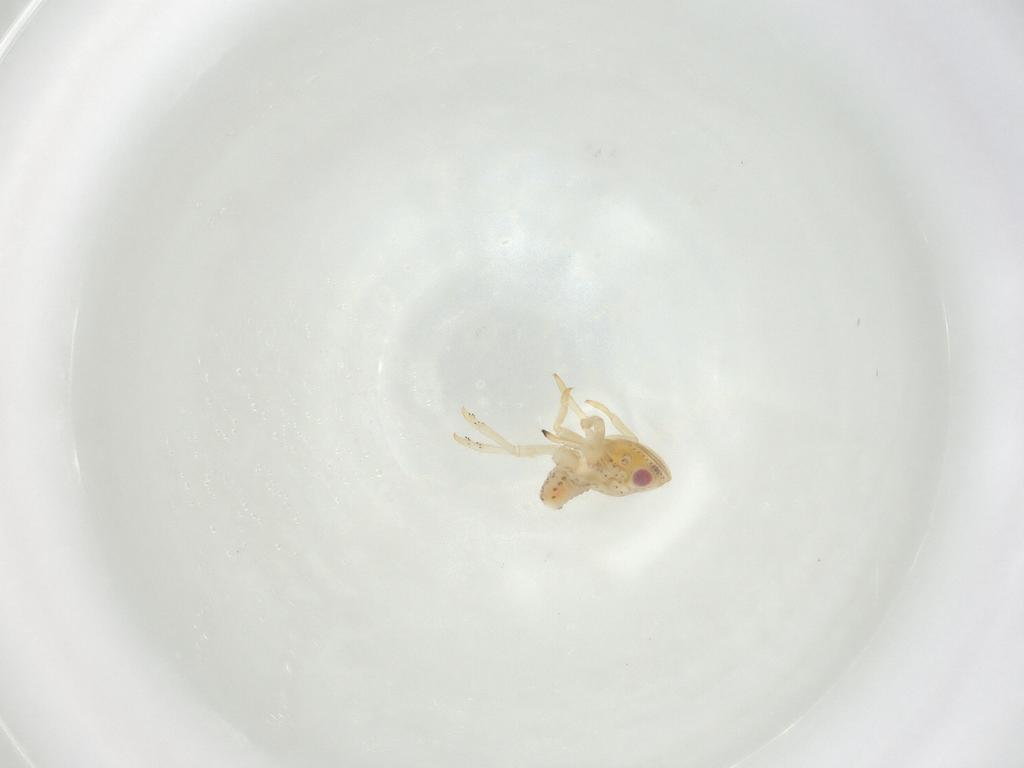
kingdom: Animalia
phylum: Arthropoda
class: Insecta
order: Hemiptera
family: Tropiduchidae
